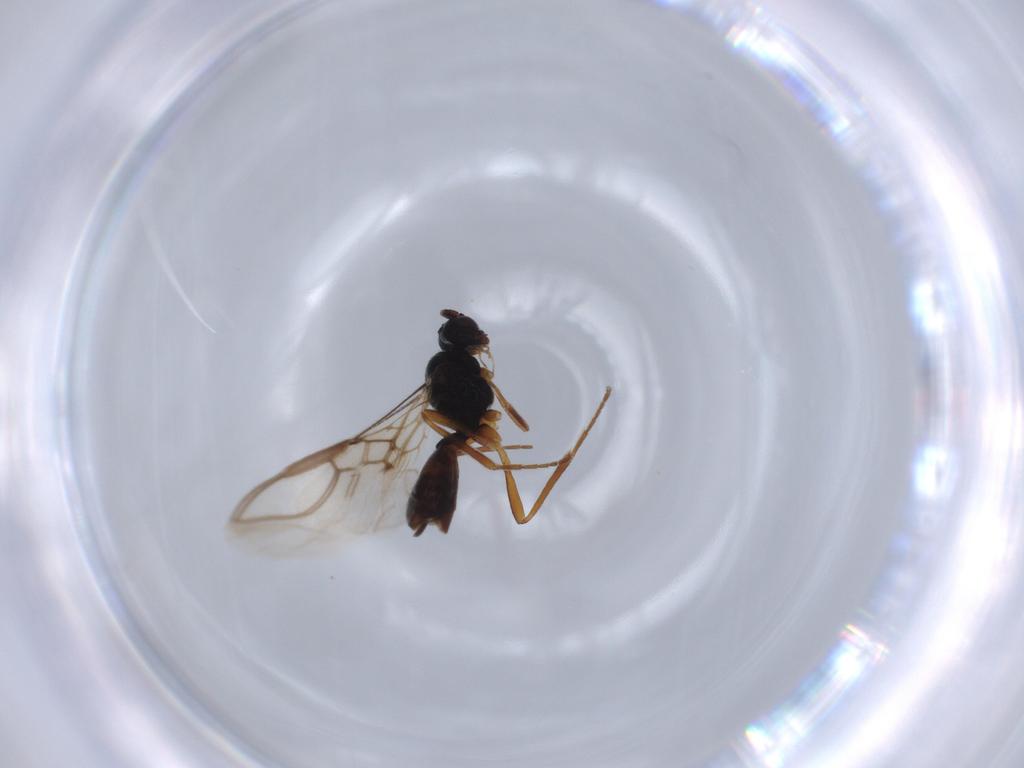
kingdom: Animalia
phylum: Arthropoda
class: Insecta
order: Hymenoptera
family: Braconidae
